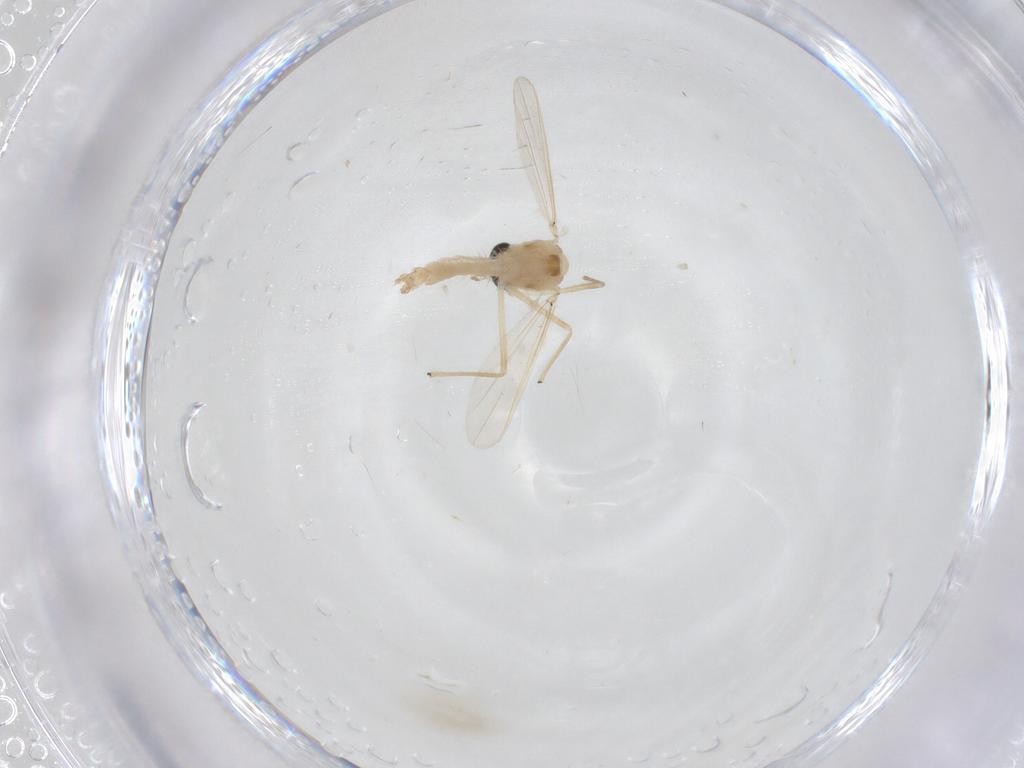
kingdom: Animalia
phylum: Arthropoda
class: Insecta
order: Diptera
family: Chironomidae
